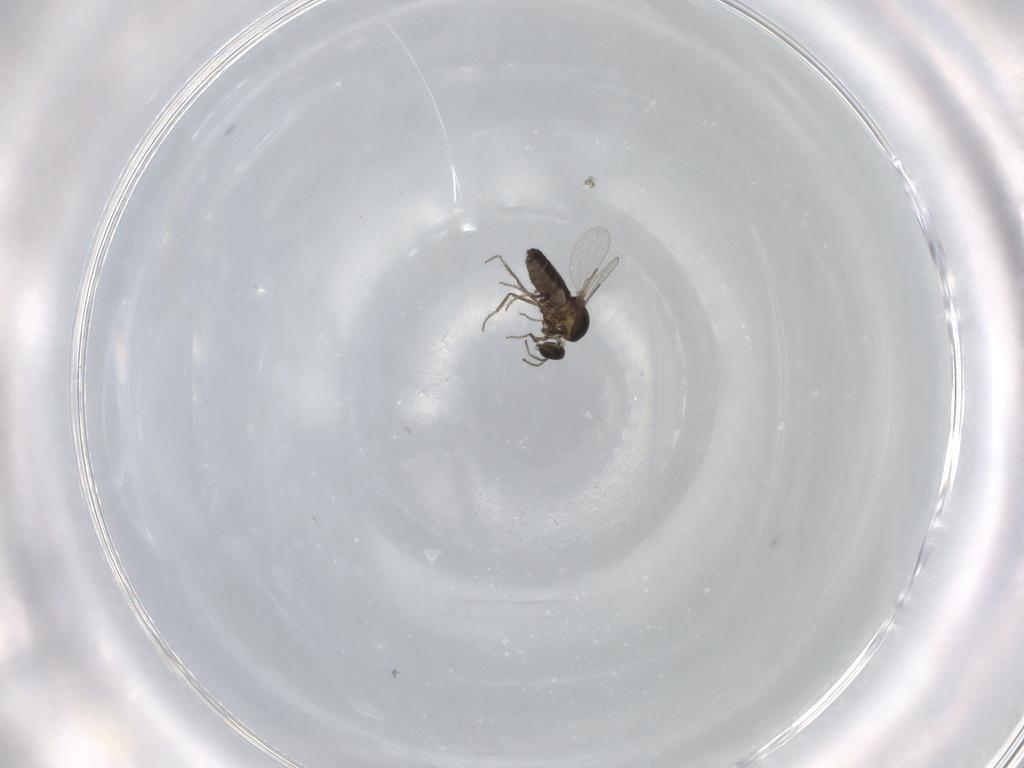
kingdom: Animalia
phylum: Arthropoda
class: Insecta
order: Diptera
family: Ceratopogonidae
